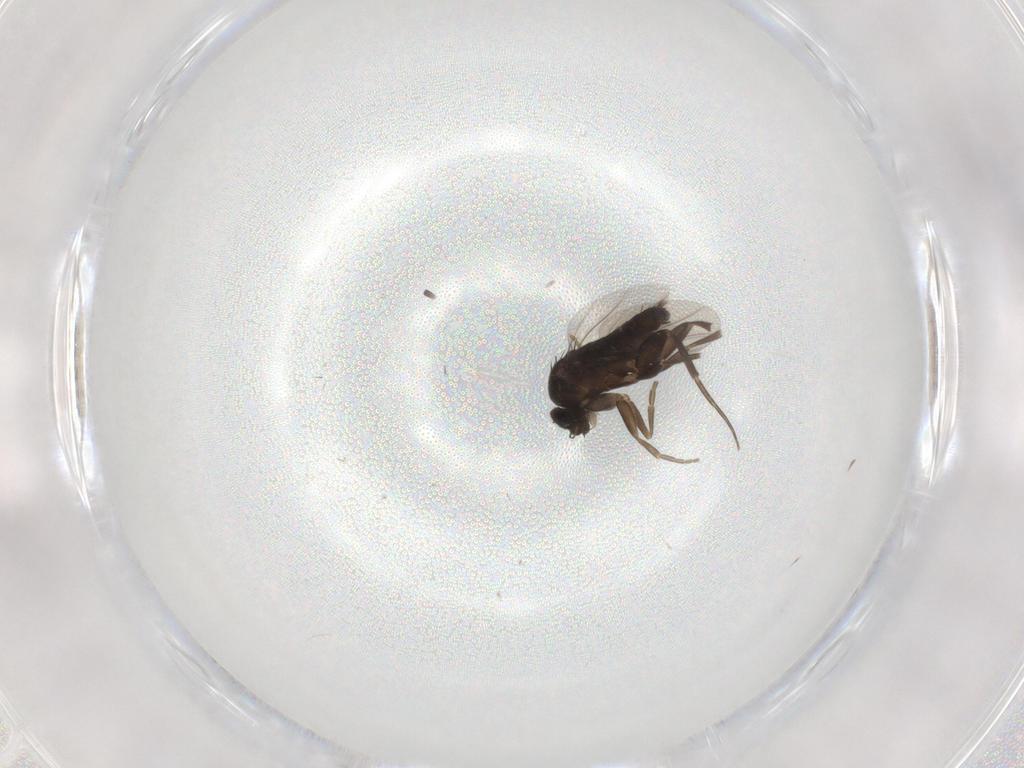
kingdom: Animalia
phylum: Arthropoda
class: Insecta
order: Diptera
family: Phoridae
